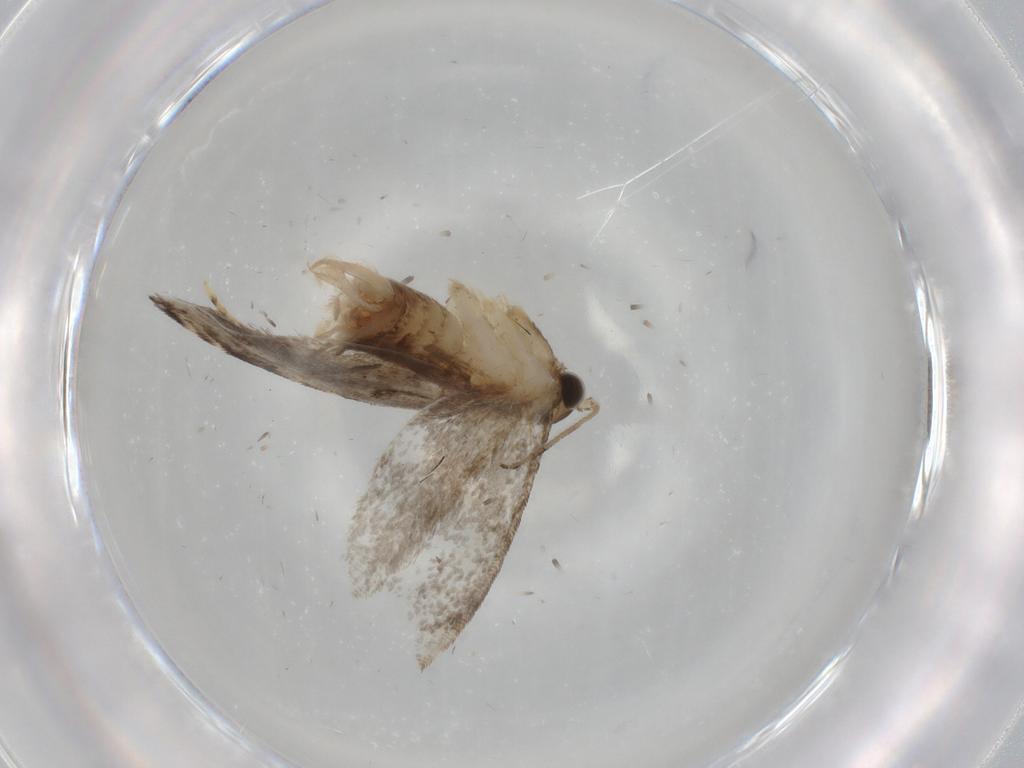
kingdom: Animalia
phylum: Arthropoda
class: Insecta
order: Lepidoptera
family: Tineidae
